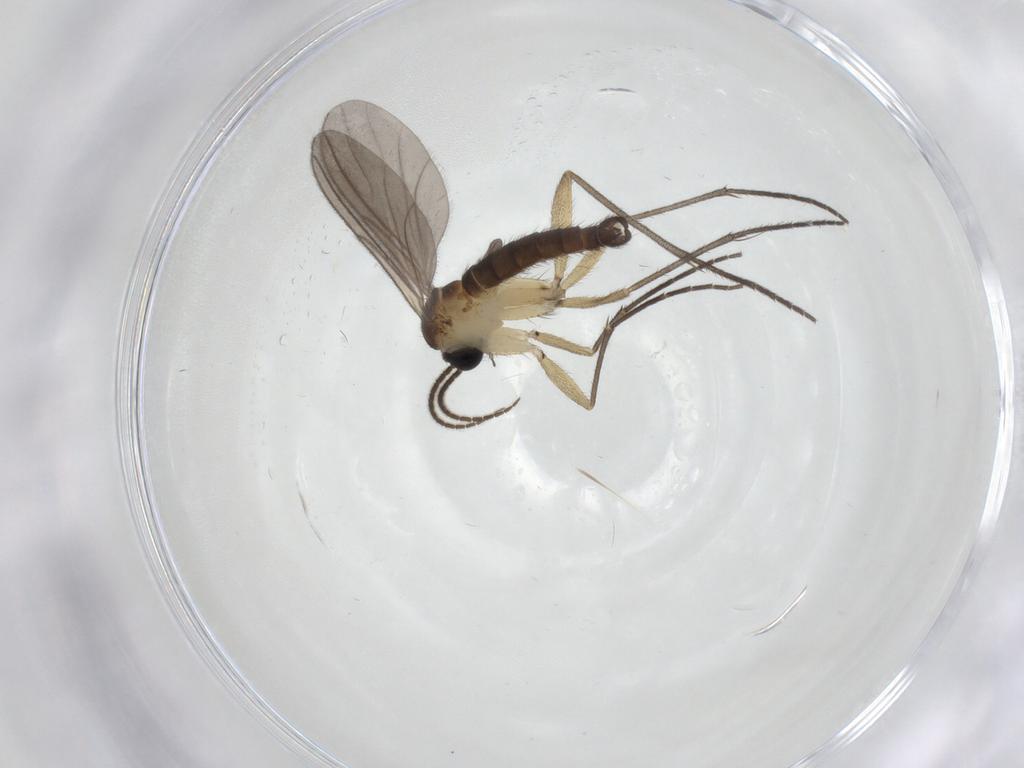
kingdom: Animalia
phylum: Arthropoda
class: Insecta
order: Diptera
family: Sciaridae
